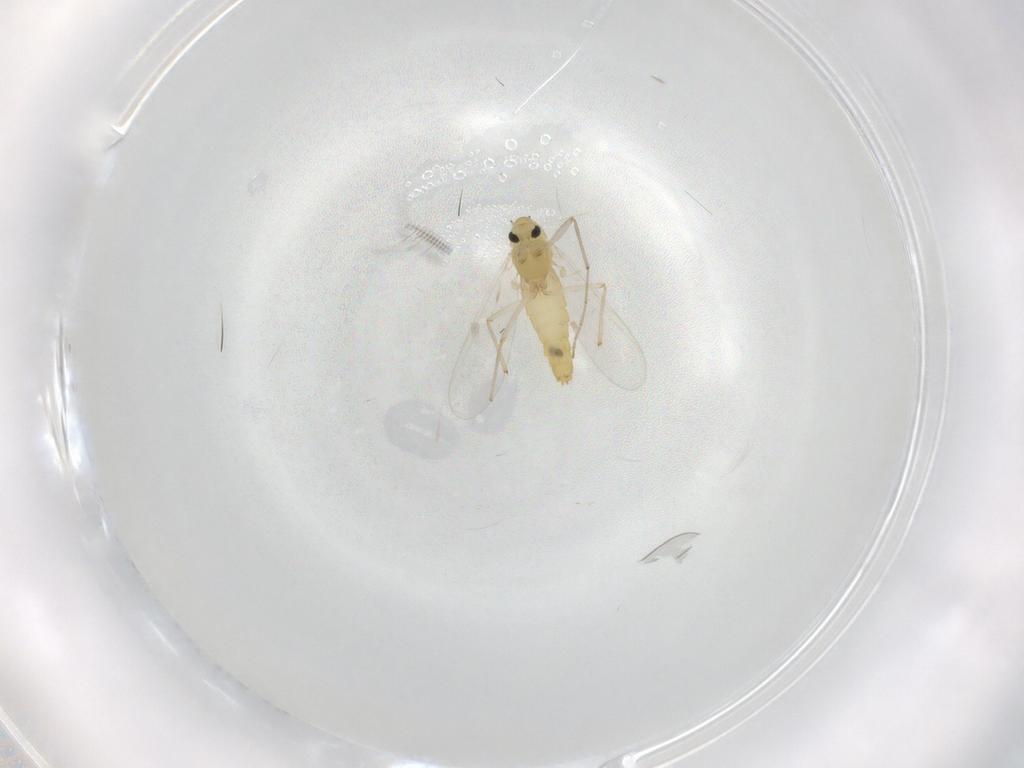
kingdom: Animalia
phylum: Arthropoda
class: Insecta
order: Diptera
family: Chironomidae
